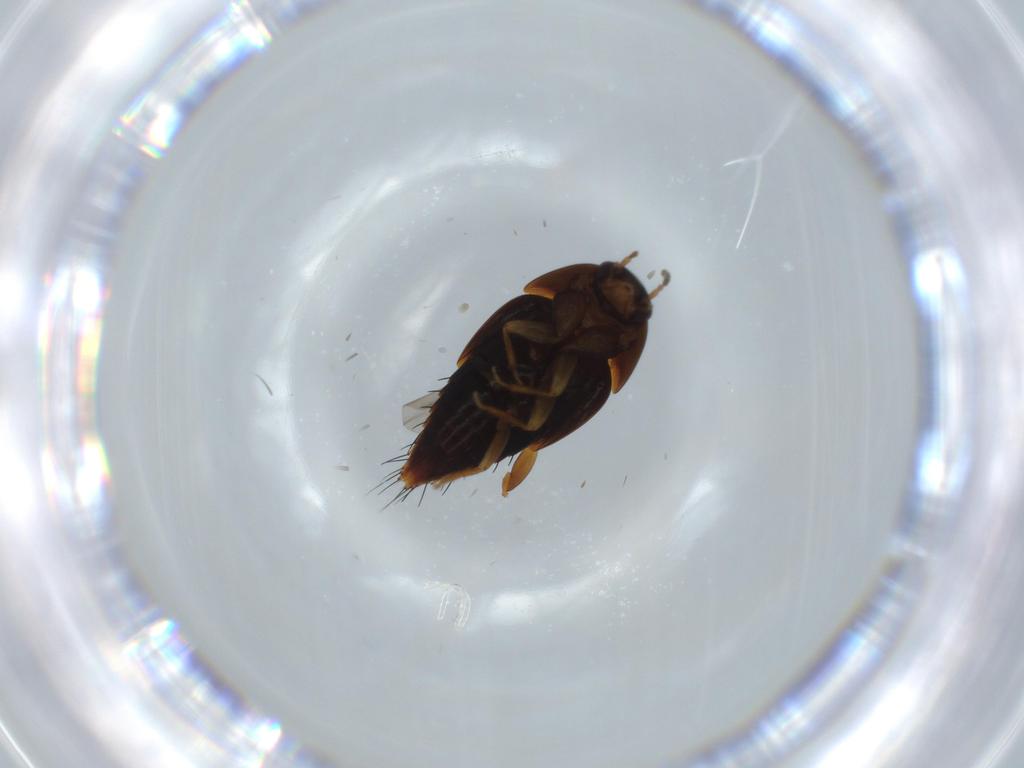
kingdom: Animalia
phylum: Arthropoda
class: Insecta
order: Coleoptera
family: Staphylinidae
